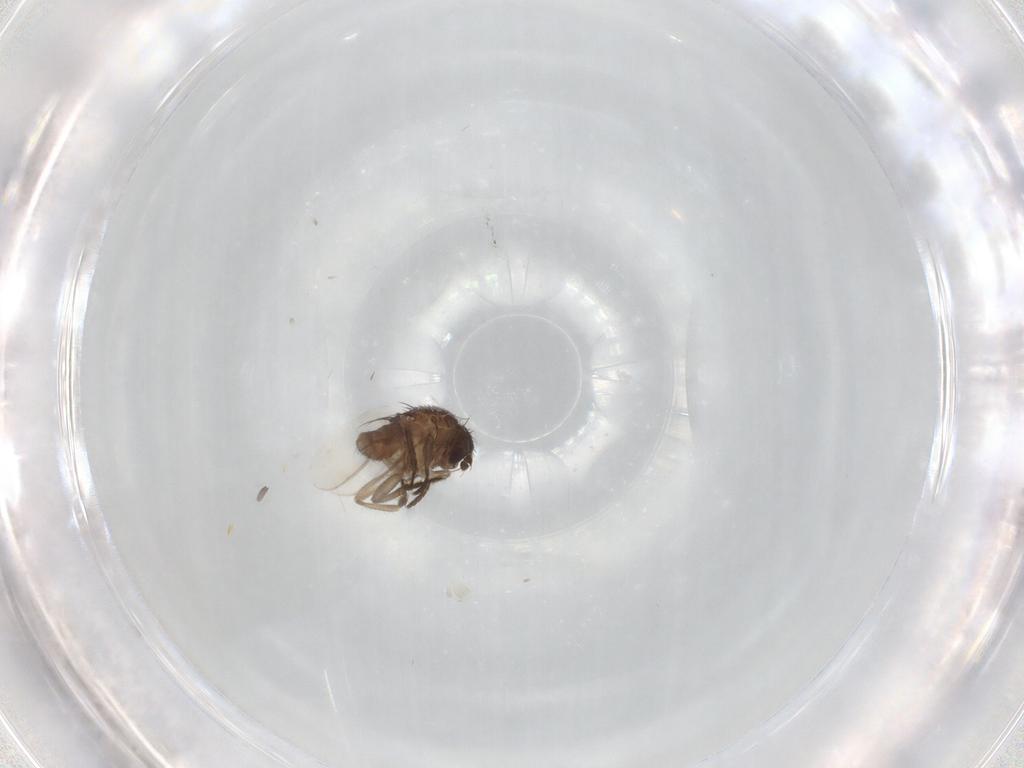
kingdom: Animalia
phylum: Arthropoda
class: Insecta
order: Diptera
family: Sphaeroceridae
